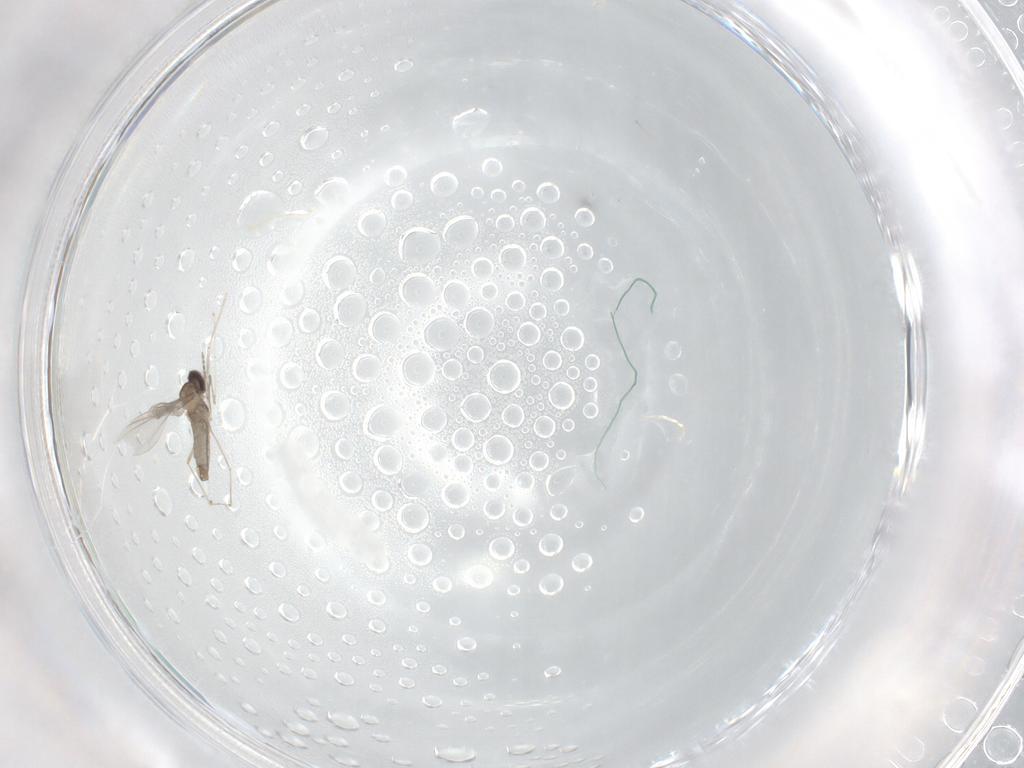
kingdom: Animalia
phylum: Arthropoda
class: Insecta
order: Diptera
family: Cecidomyiidae
